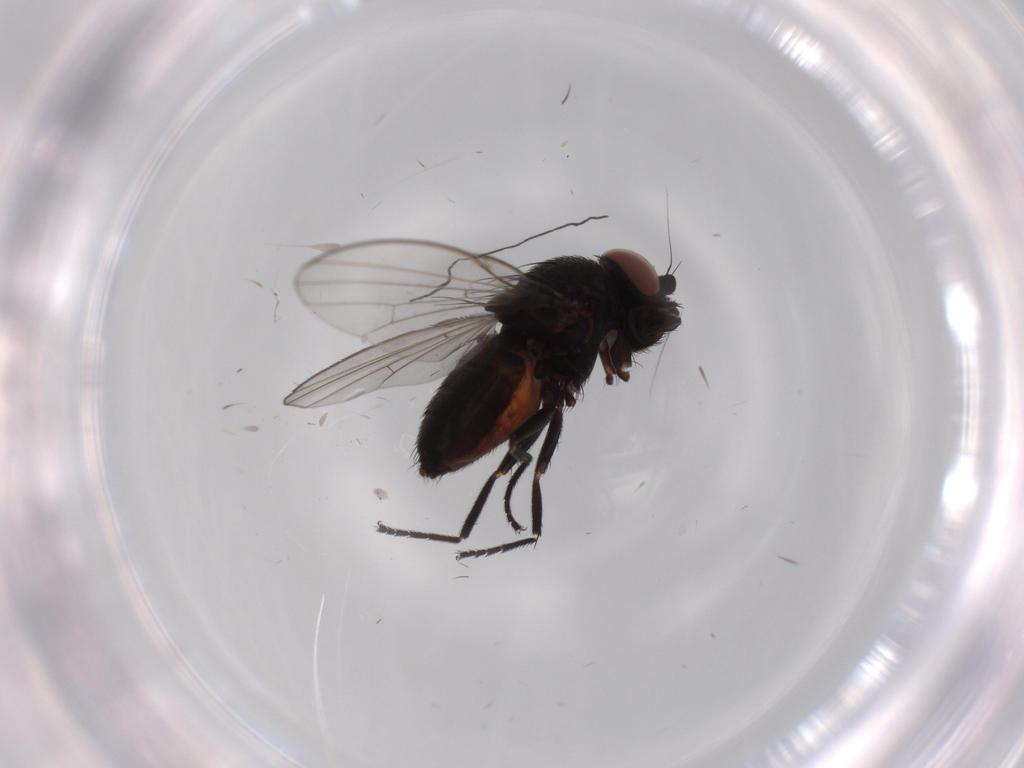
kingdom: Animalia
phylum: Arthropoda
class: Insecta
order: Diptera
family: Milichiidae
